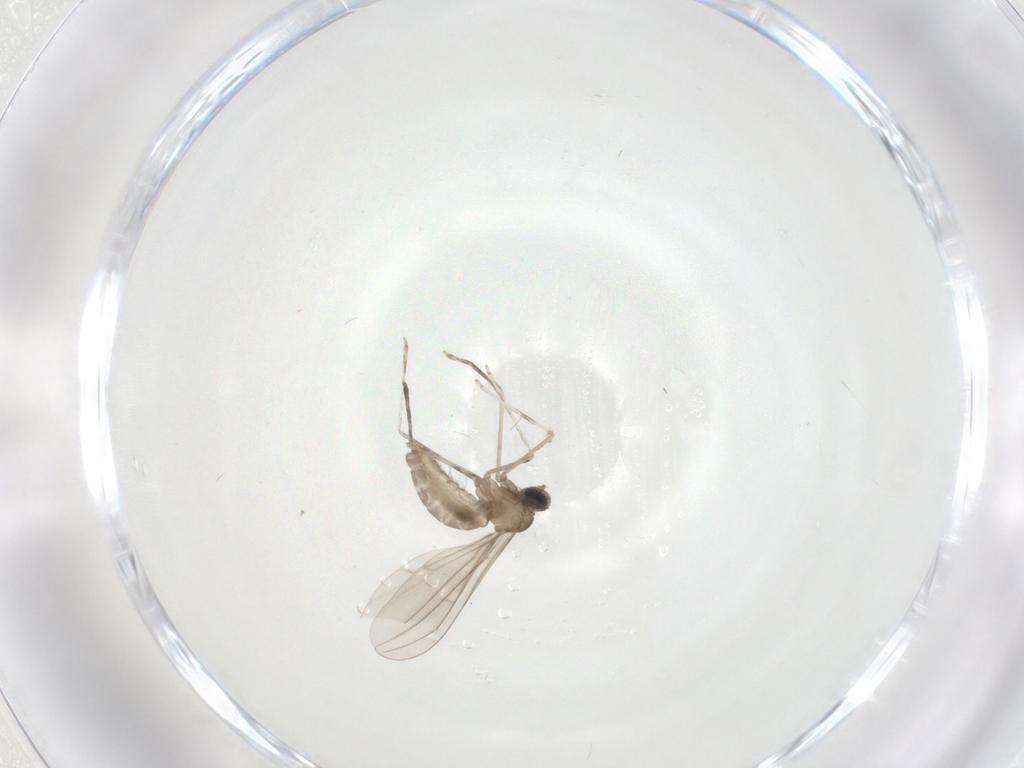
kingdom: Animalia
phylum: Arthropoda
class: Insecta
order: Diptera
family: Cecidomyiidae
